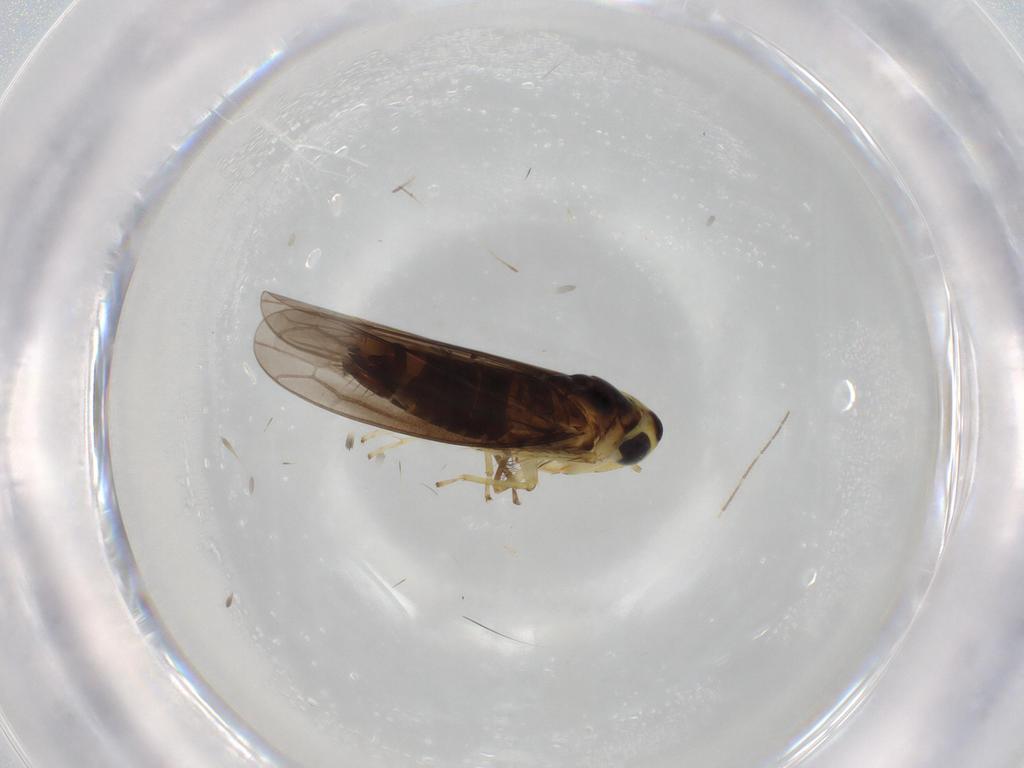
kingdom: Animalia
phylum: Arthropoda
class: Insecta
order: Hemiptera
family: Cicadellidae
